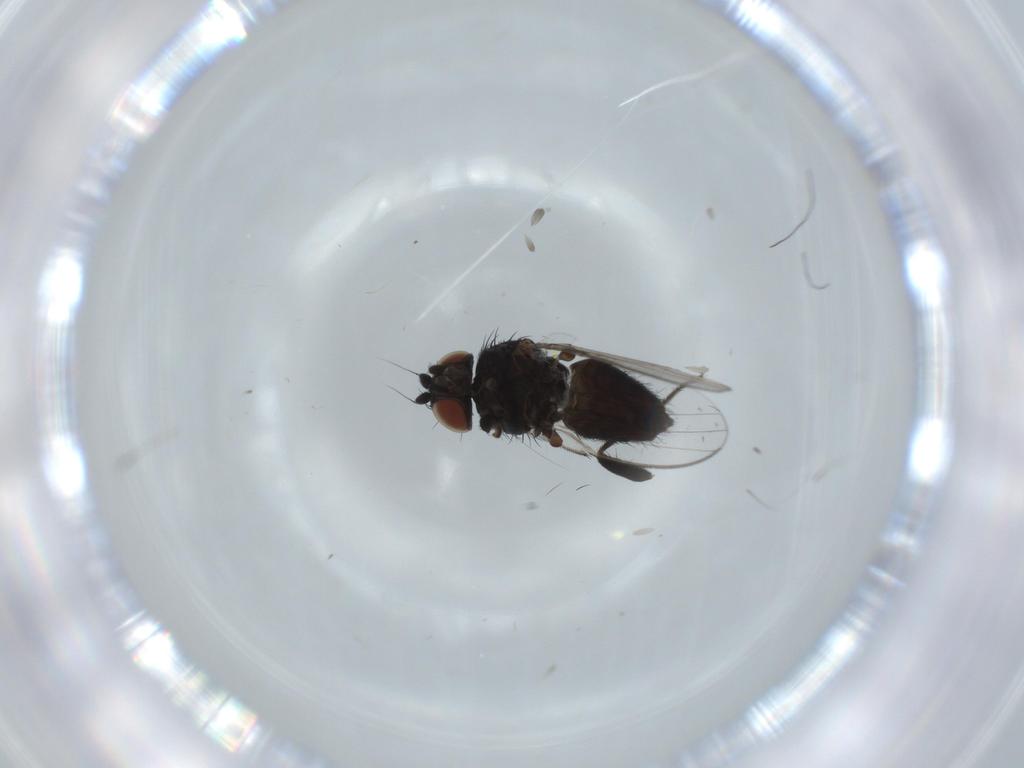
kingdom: Animalia
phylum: Arthropoda
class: Insecta
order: Diptera
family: Milichiidae
